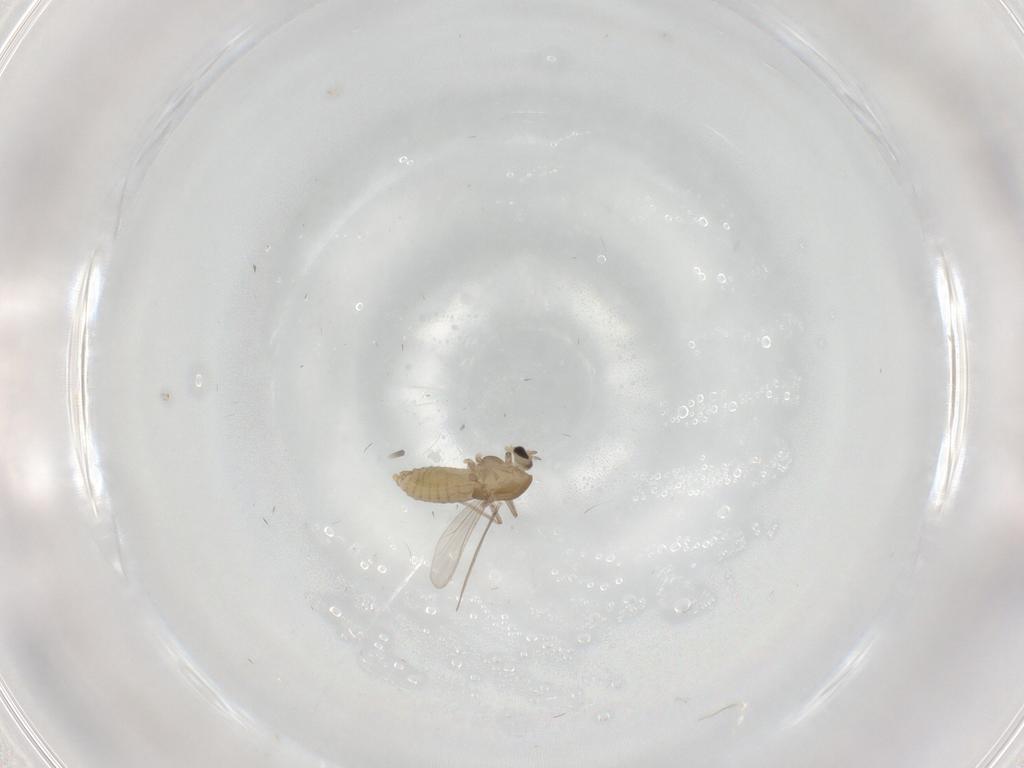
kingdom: Animalia
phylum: Arthropoda
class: Insecta
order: Diptera
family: Chironomidae
